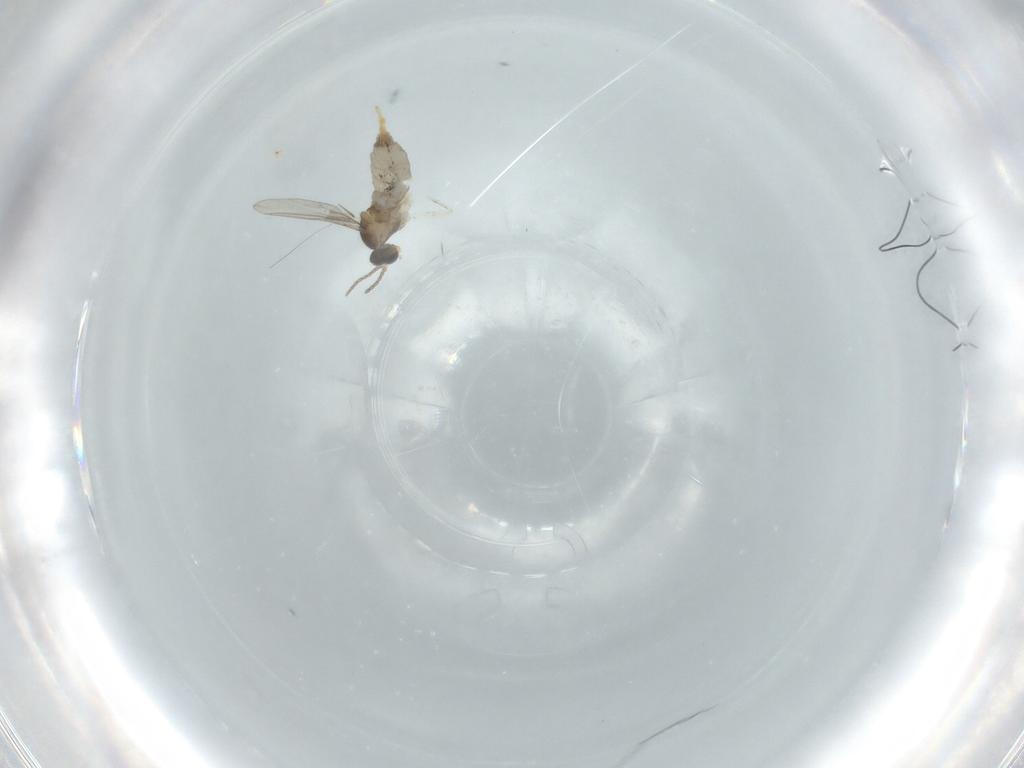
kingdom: Animalia
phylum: Arthropoda
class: Insecta
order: Diptera
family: Cecidomyiidae
